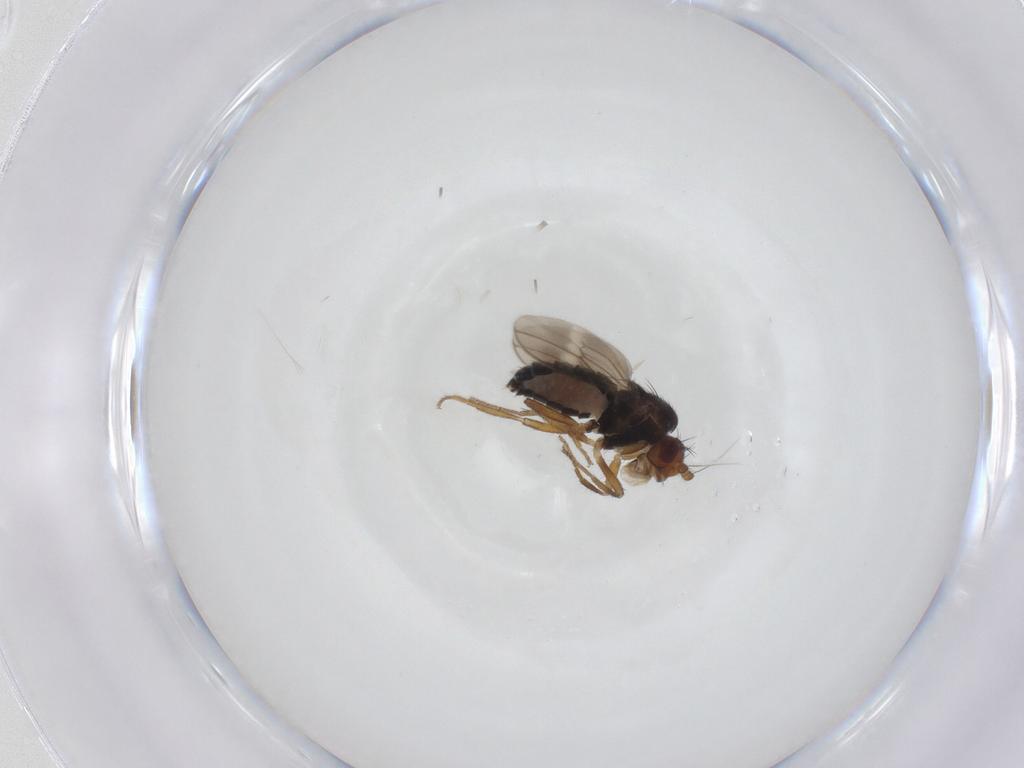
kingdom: Animalia
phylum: Arthropoda
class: Insecta
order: Diptera
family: Sphaeroceridae
